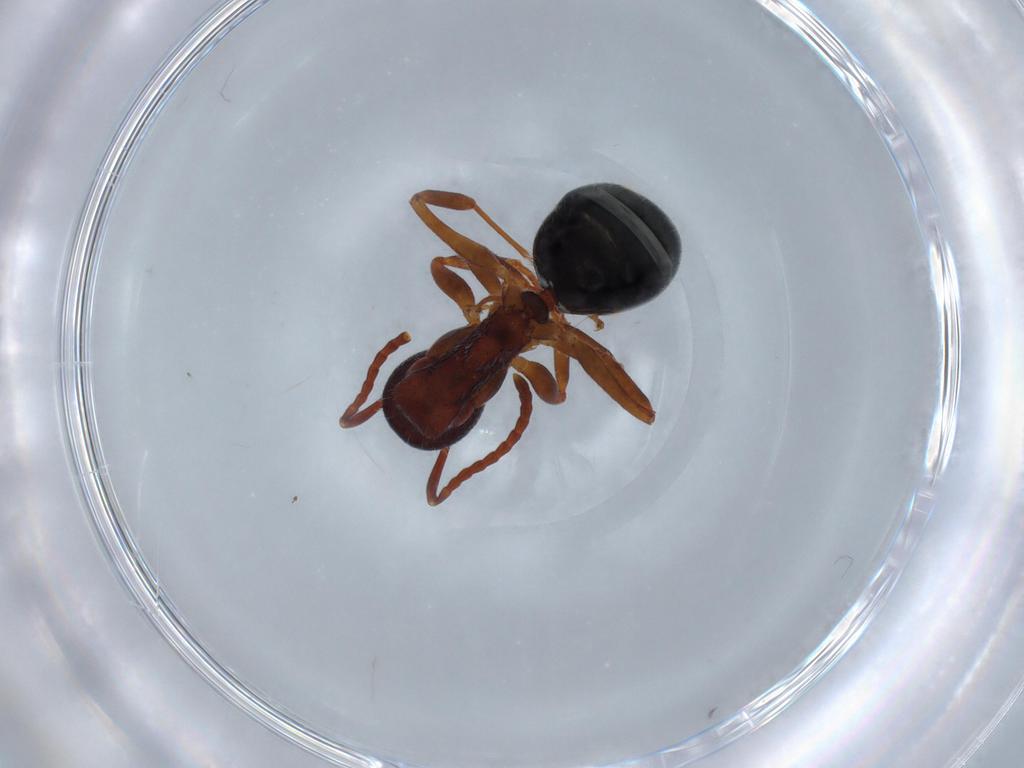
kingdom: Animalia
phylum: Arthropoda
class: Insecta
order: Hymenoptera
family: Formicidae
